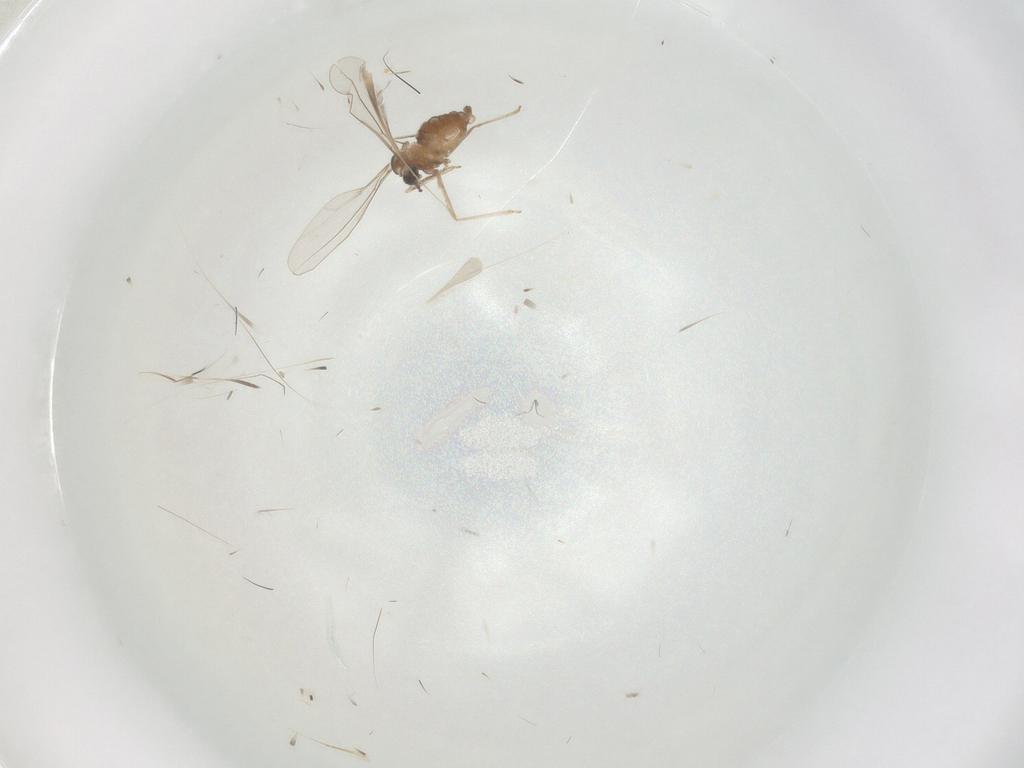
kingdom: Animalia
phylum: Arthropoda
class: Insecta
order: Diptera
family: Cecidomyiidae
